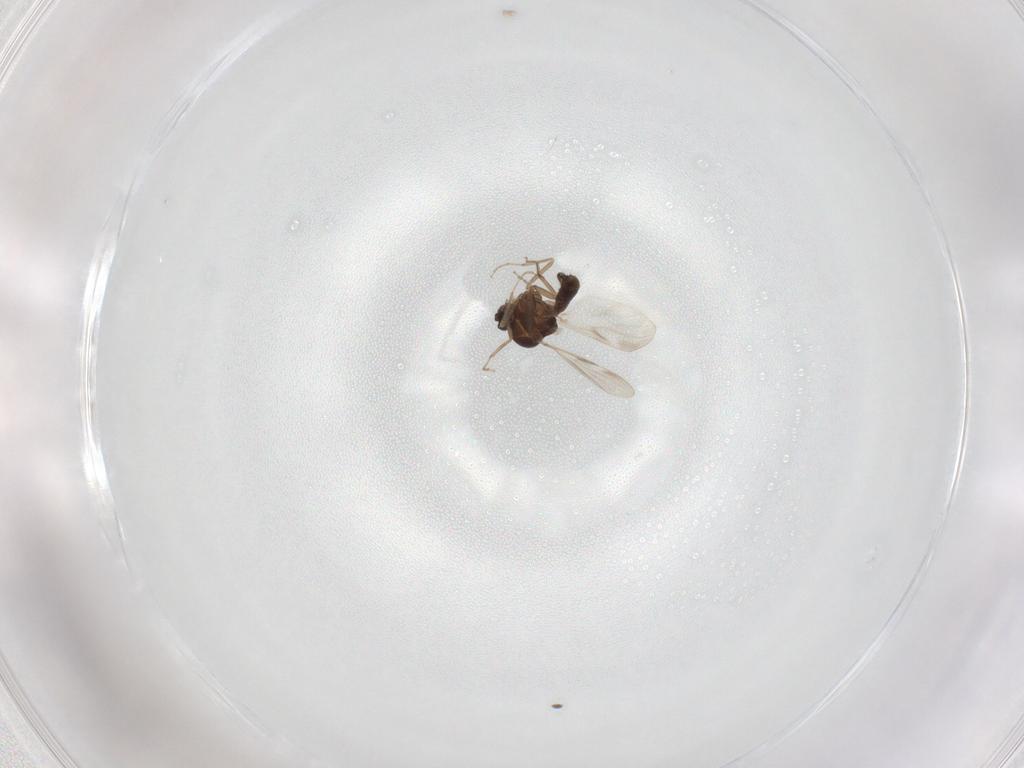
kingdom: Animalia
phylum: Arthropoda
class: Insecta
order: Diptera
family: Ceratopogonidae
